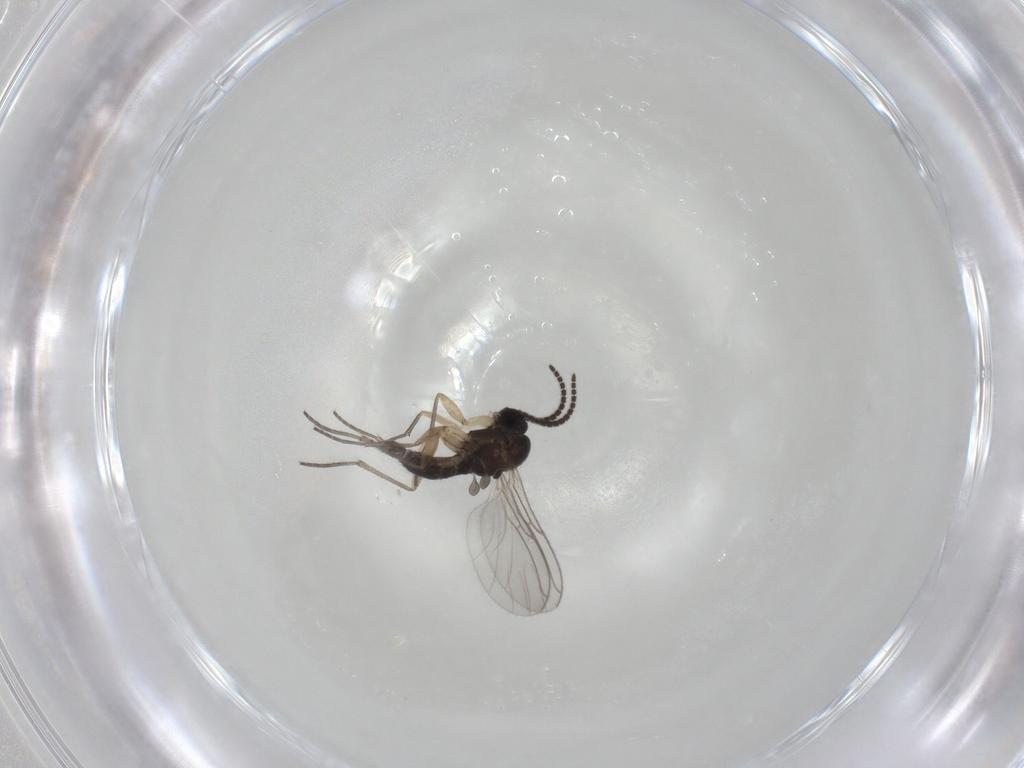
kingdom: Animalia
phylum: Arthropoda
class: Insecta
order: Diptera
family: Sciaridae
